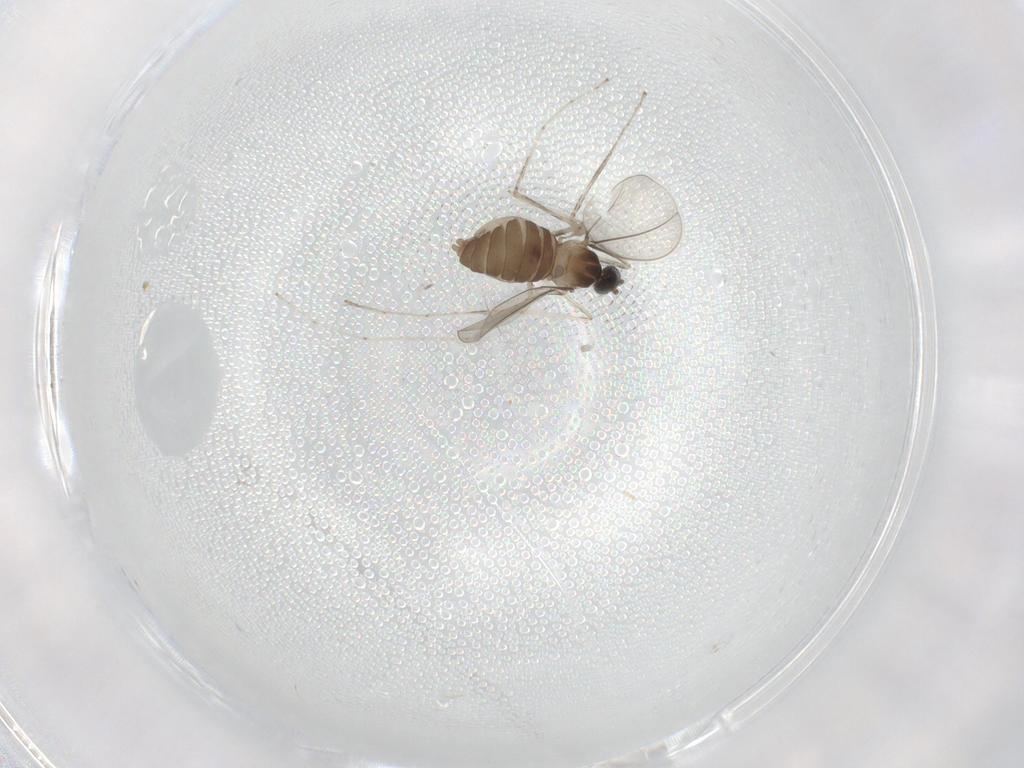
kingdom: Animalia
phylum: Arthropoda
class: Insecta
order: Diptera
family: Cecidomyiidae
